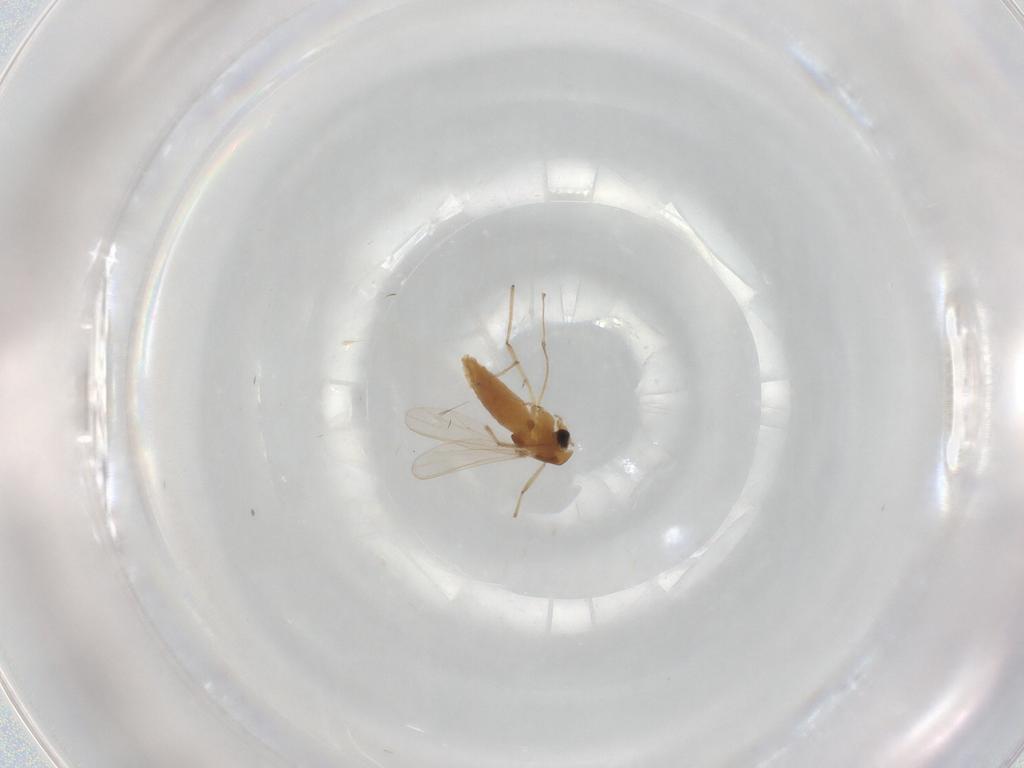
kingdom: Animalia
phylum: Arthropoda
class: Insecta
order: Diptera
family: Chironomidae
